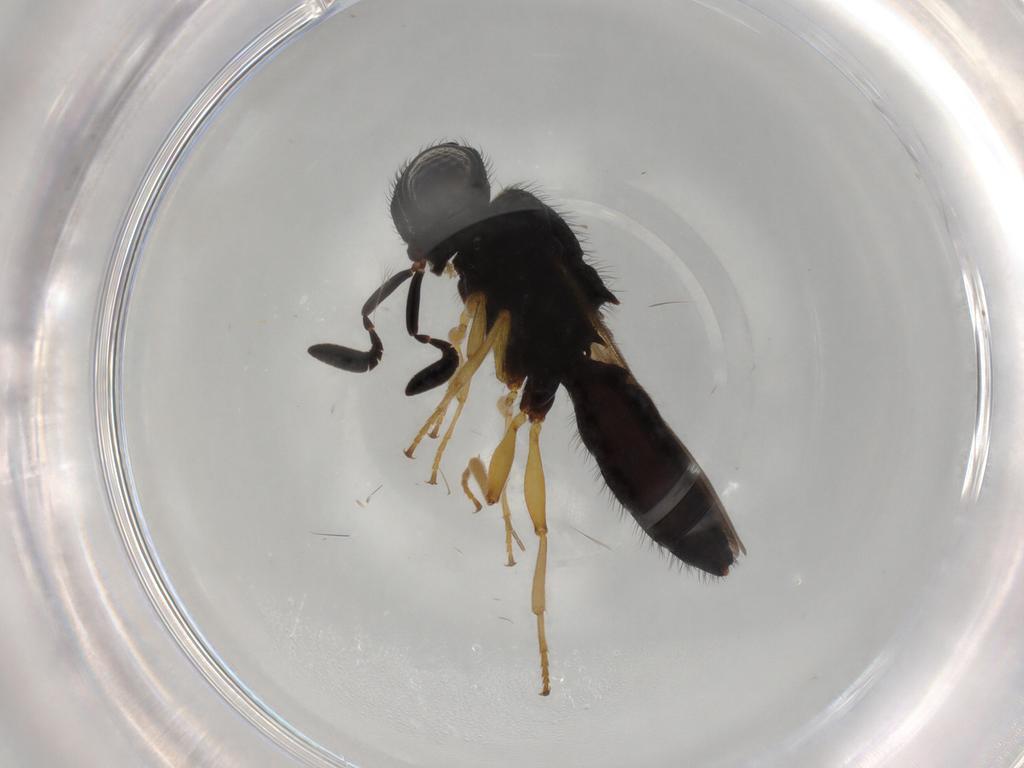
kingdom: Animalia
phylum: Arthropoda
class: Insecta
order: Hymenoptera
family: Scelionidae
